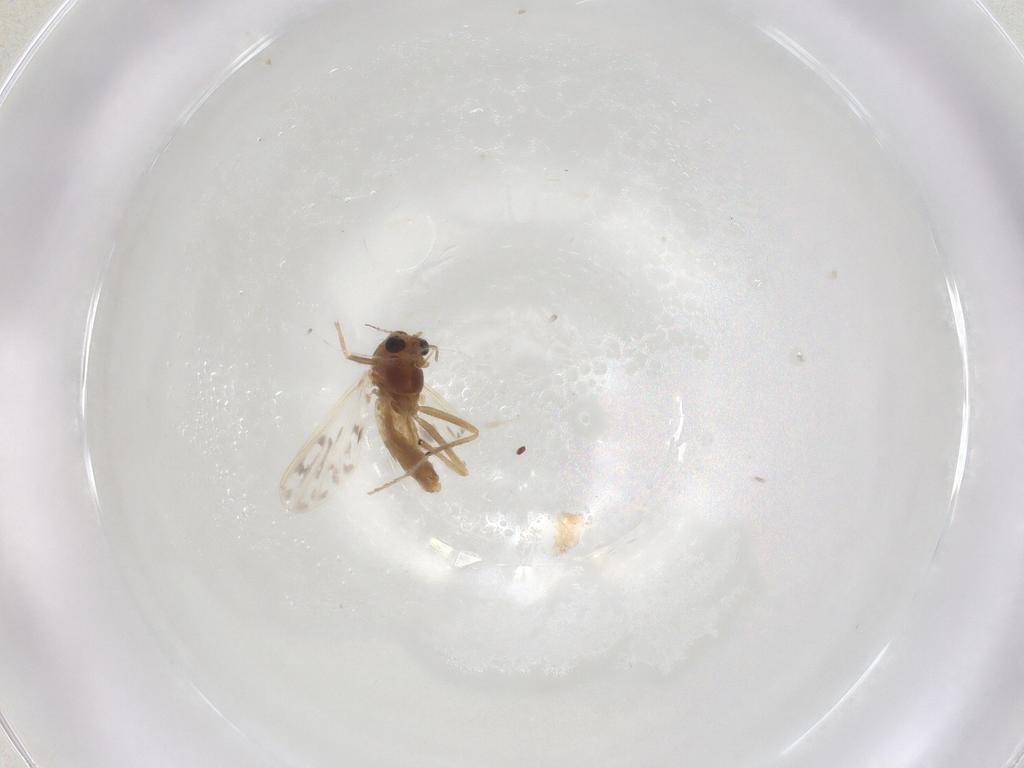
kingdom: Animalia
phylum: Arthropoda
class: Insecta
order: Diptera
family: Chironomidae
